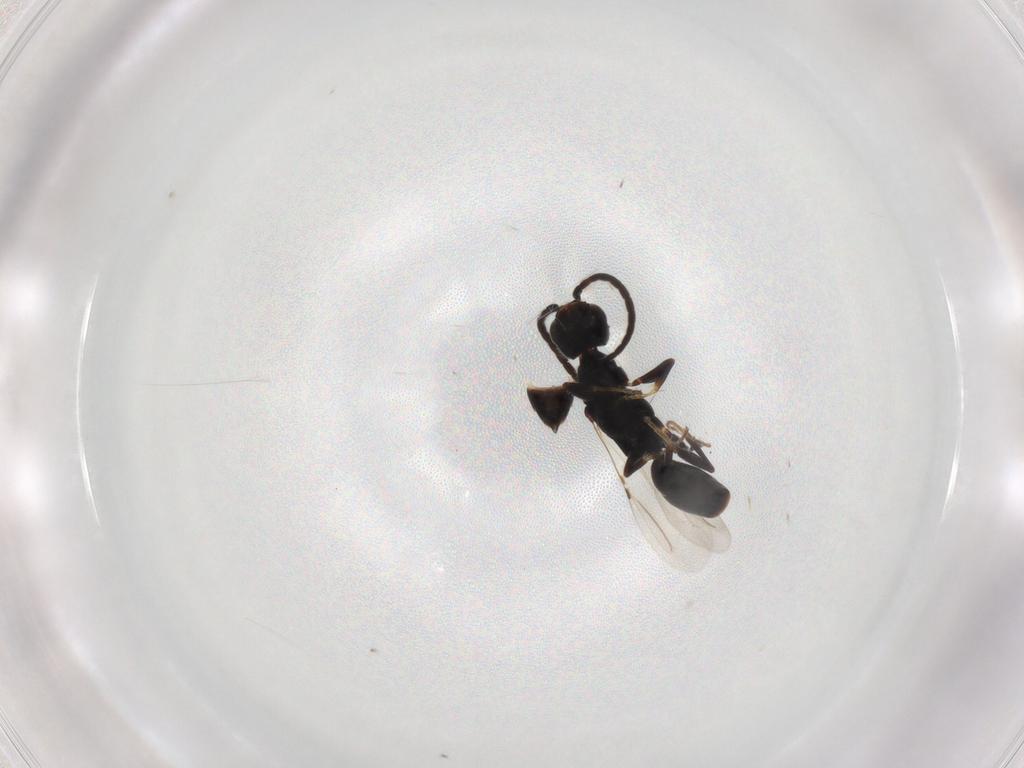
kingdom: Animalia
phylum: Arthropoda
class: Insecta
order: Hymenoptera
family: Bethylidae
